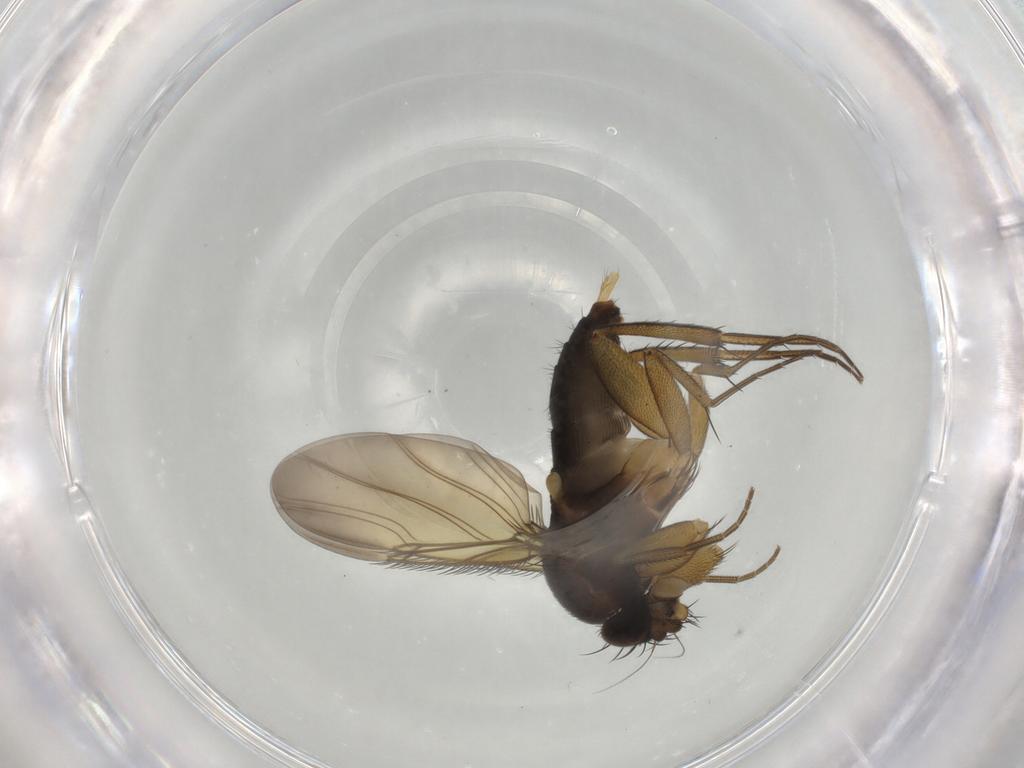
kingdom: Animalia
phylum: Arthropoda
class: Insecta
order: Diptera
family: Phoridae
